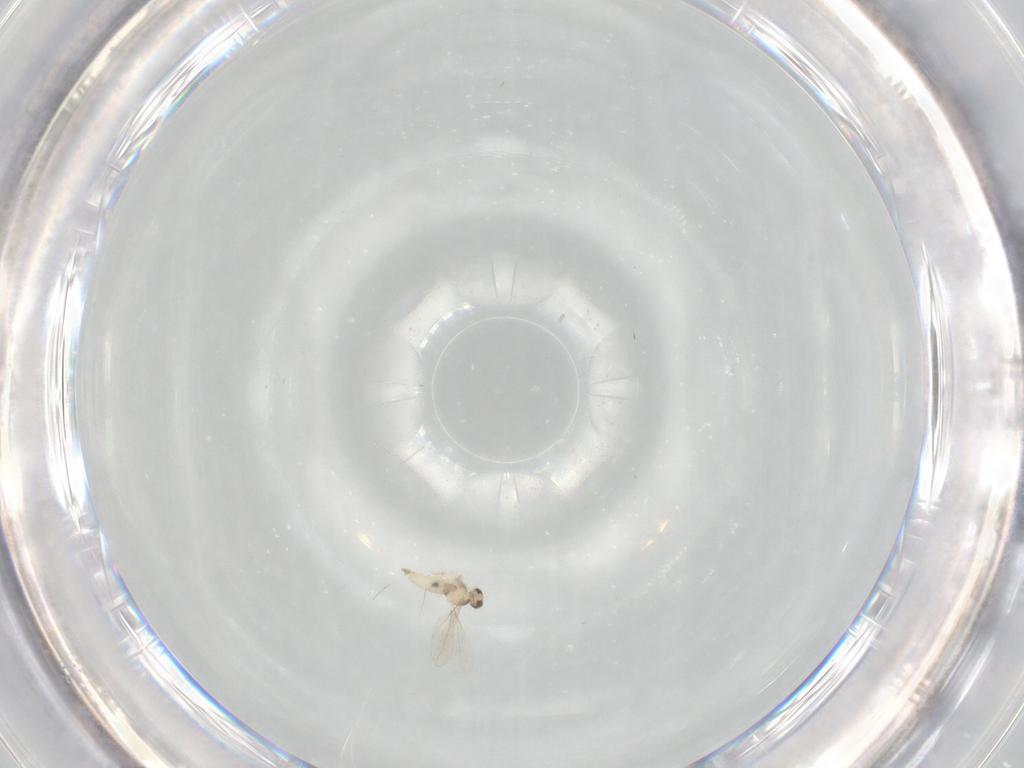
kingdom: Animalia
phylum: Arthropoda
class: Insecta
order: Diptera
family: Cecidomyiidae
